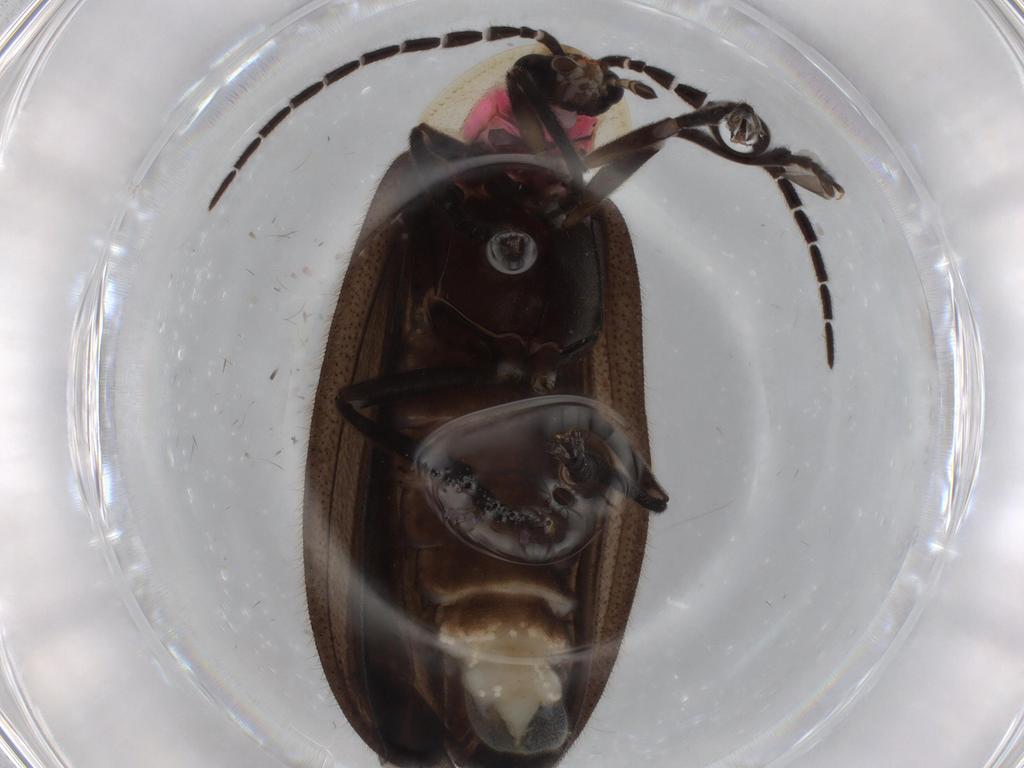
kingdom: Animalia
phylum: Arthropoda
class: Insecta
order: Coleoptera
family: Lampyridae
